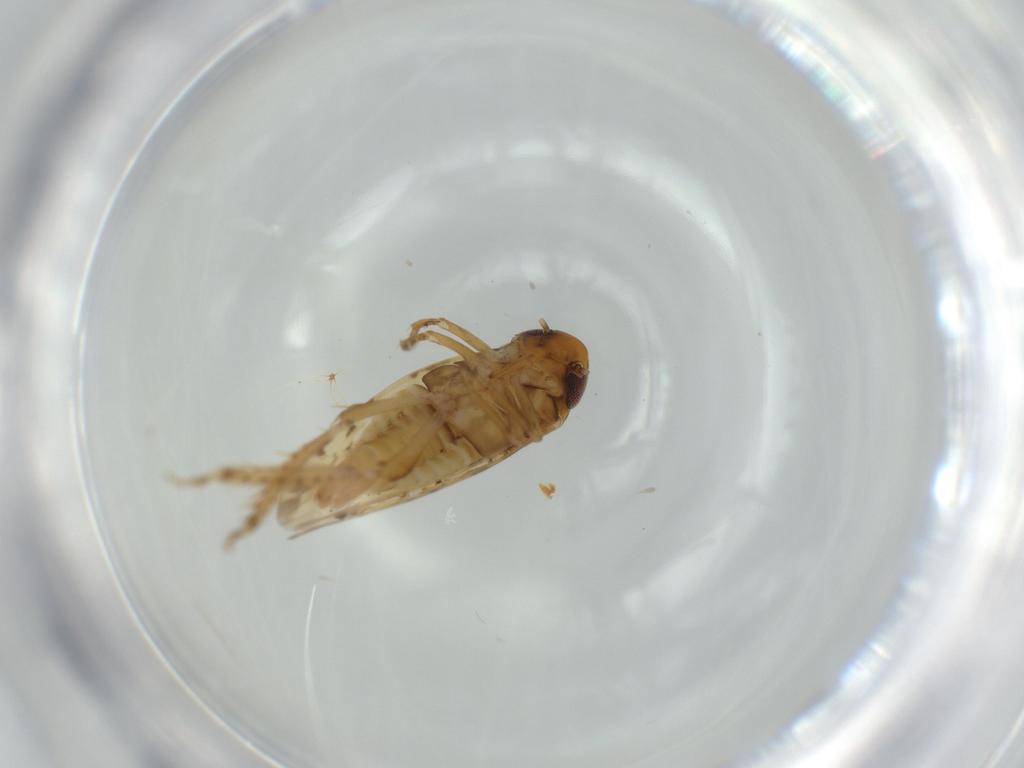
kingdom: Animalia
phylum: Arthropoda
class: Insecta
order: Hemiptera
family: Cicadellidae
